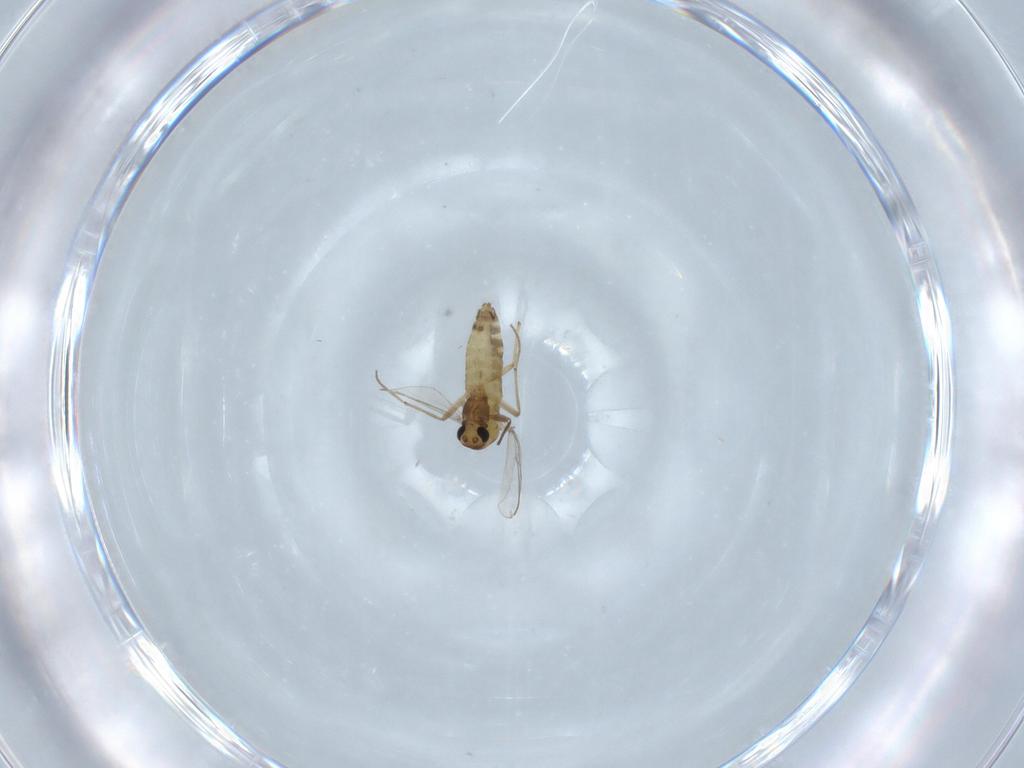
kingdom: Animalia
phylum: Arthropoda
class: Insecta
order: Diptera
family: Chironomidae
